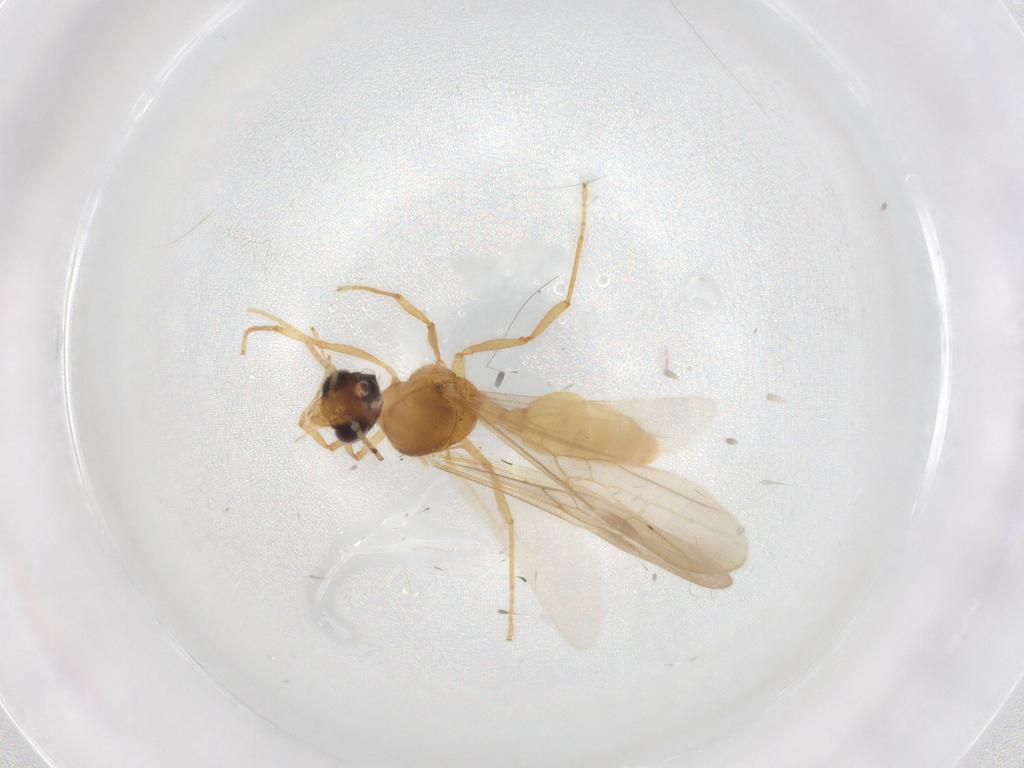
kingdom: Animalia
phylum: Arthropoda
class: Insecta
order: Hymenoptera
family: Formicidae
